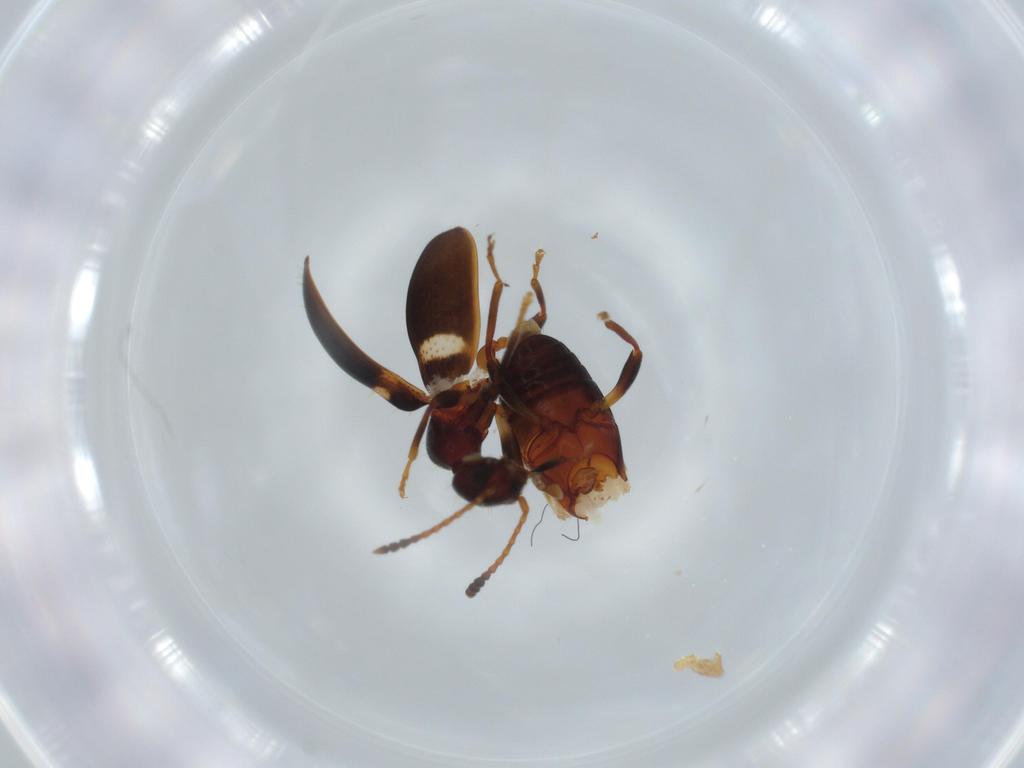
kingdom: Animalia
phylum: Arthropoda
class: Insecta
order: Coleoptera
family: Anthicidae
